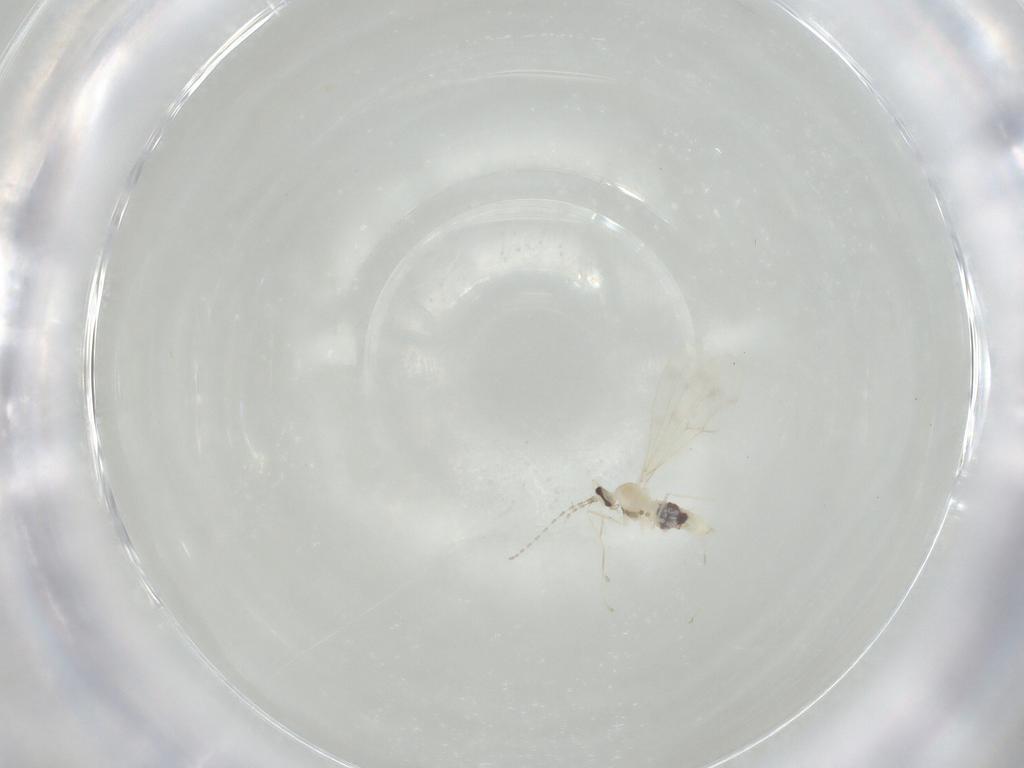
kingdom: Animalia
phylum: Arthropoda
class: Insecta
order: Diptera
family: Cecidomyiidae
